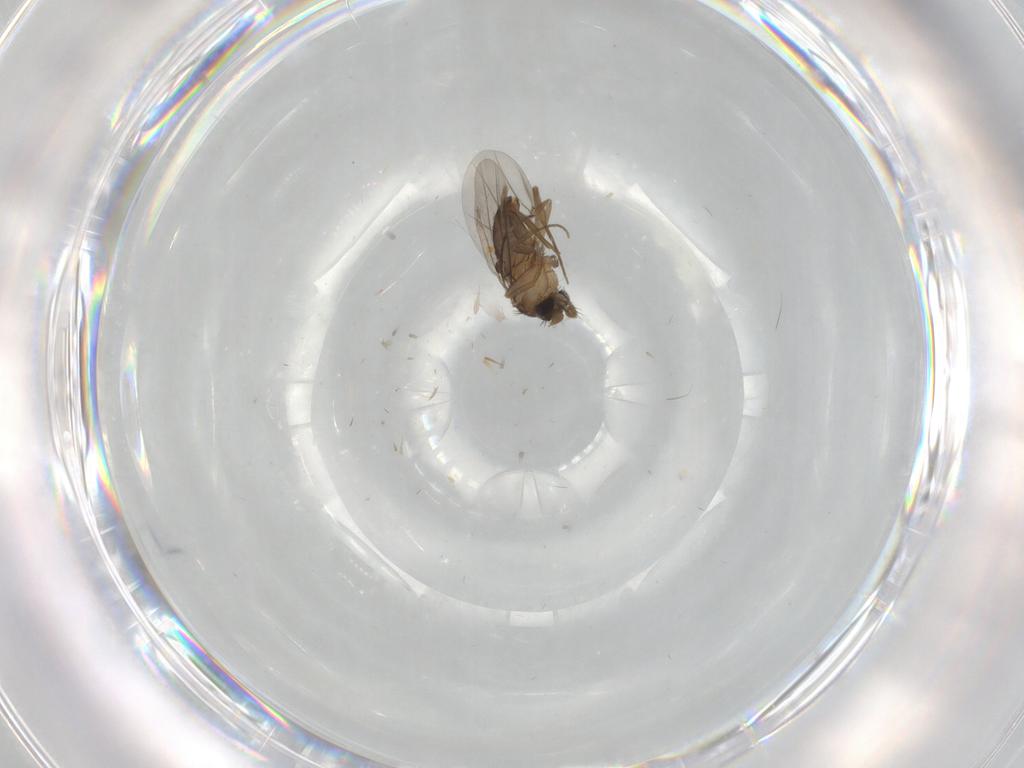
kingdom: Animalia
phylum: Arthropoda
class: Insecta
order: Diptera
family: Phoridae
